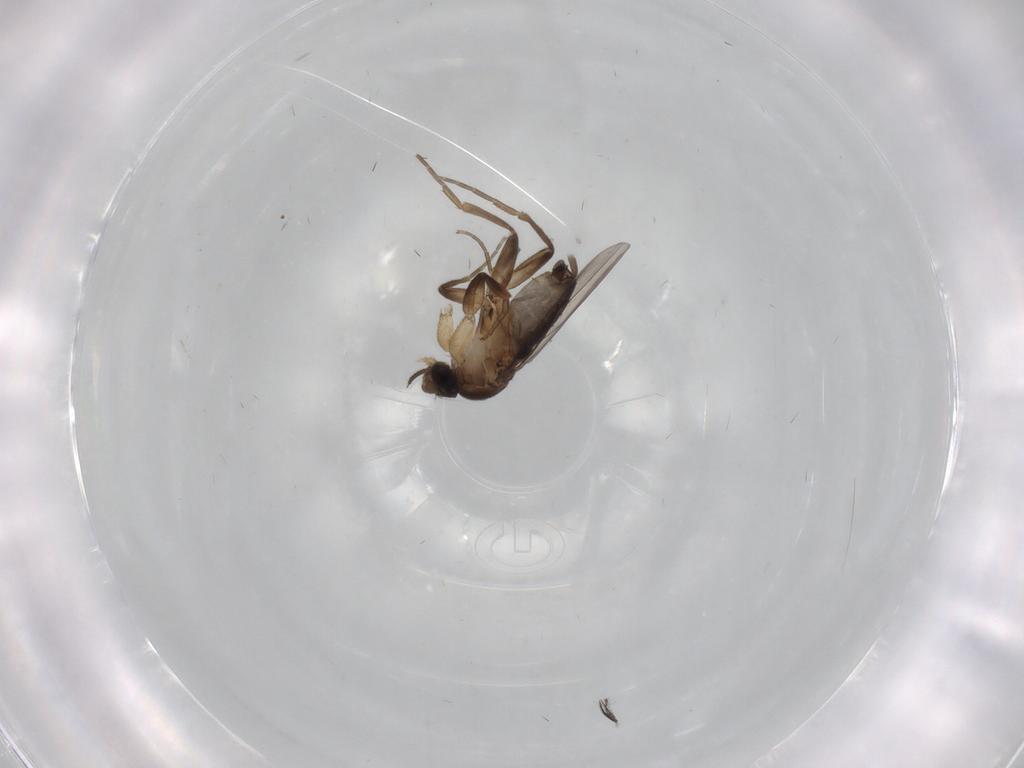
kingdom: Animalia
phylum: Arthropoda
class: Insecta
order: Diptera
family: Phoridae
